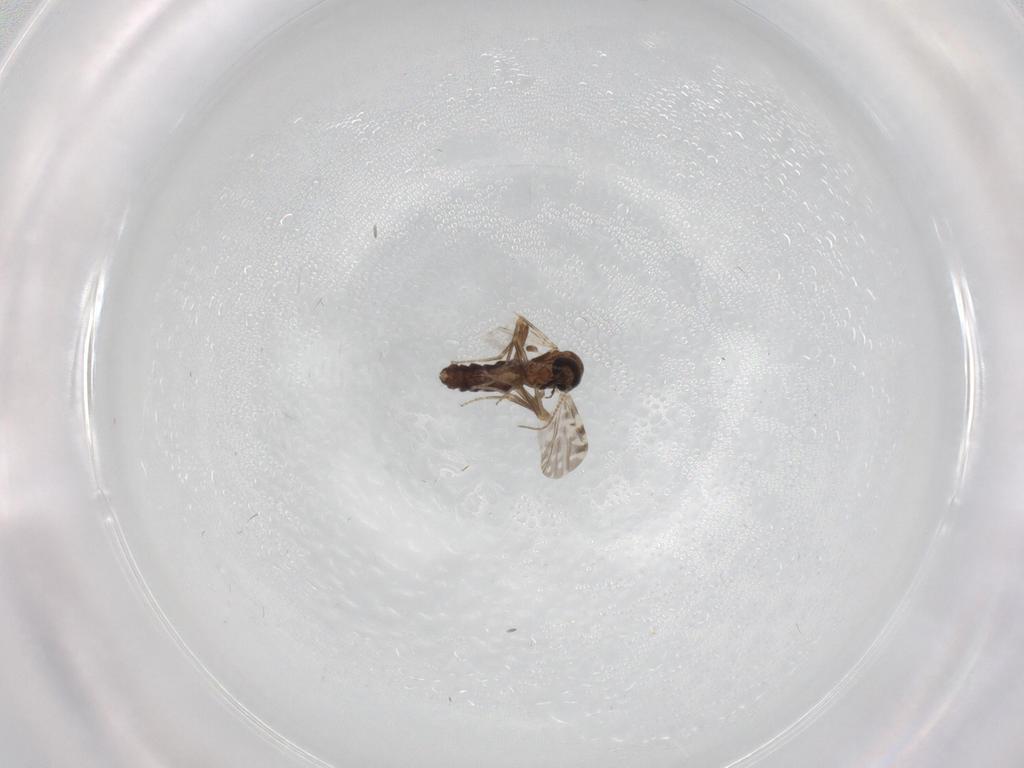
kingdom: Animalia
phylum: Arthropoda
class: Insecta
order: Diptera
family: Ceratopogonidae
